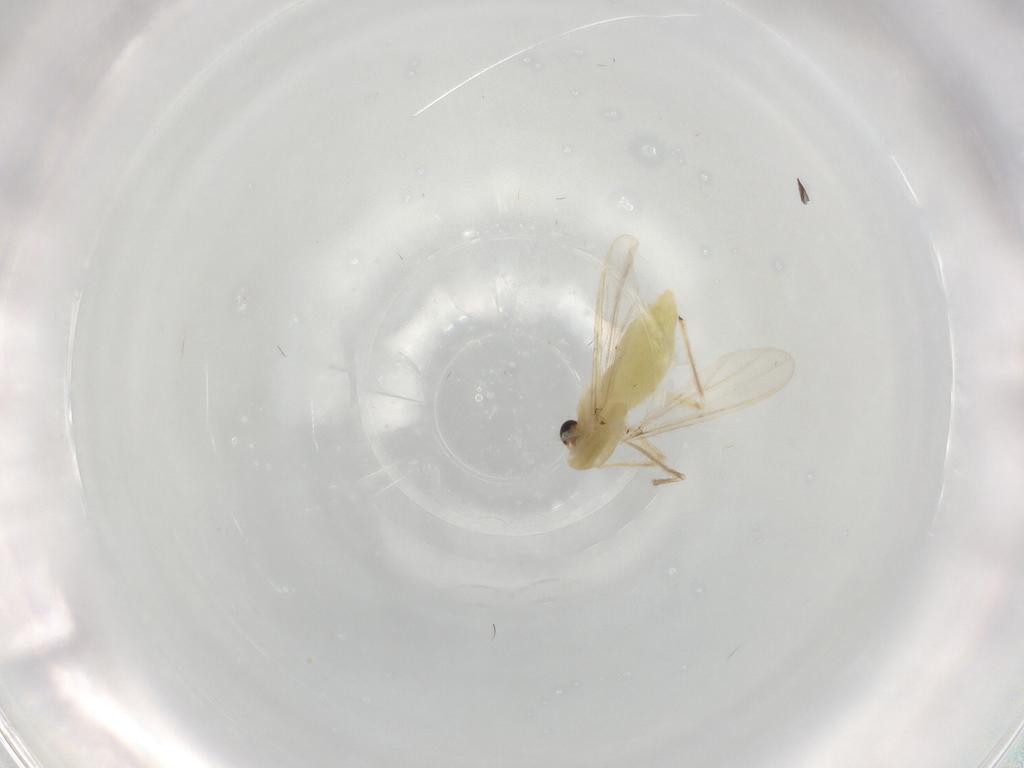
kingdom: Animalia
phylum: Arthropoda
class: Insecta
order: Diptera
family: Chironomidae
